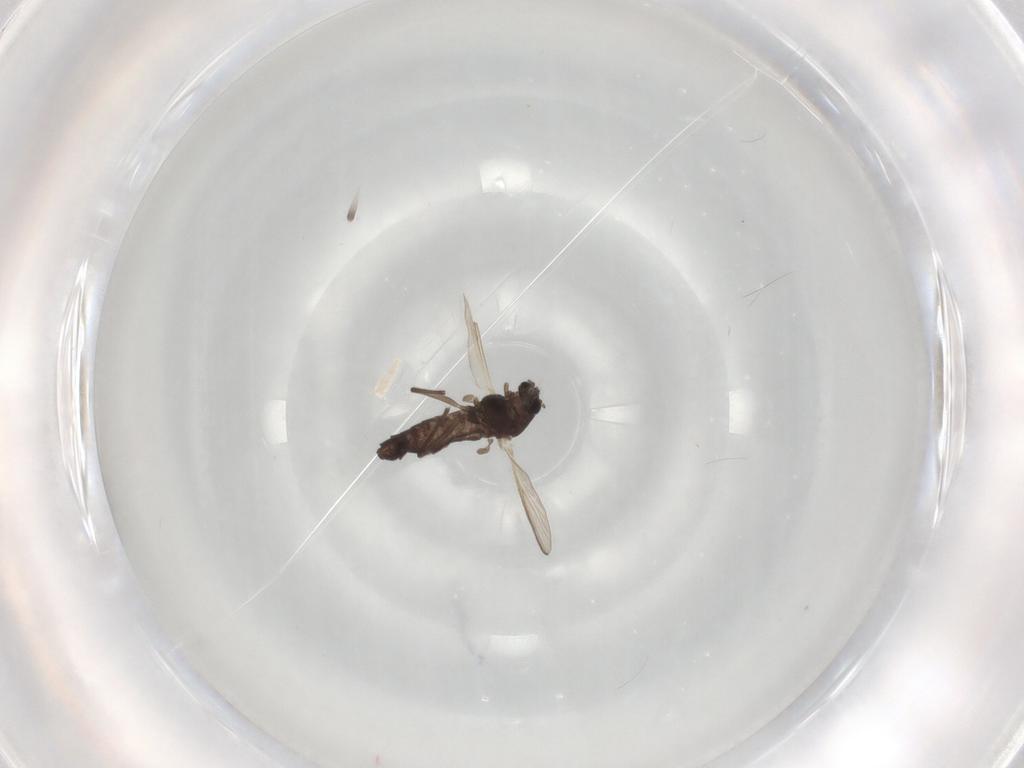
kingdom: Animalia
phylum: Arthropoda
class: Insecta
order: Diptera
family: Chironomidae
